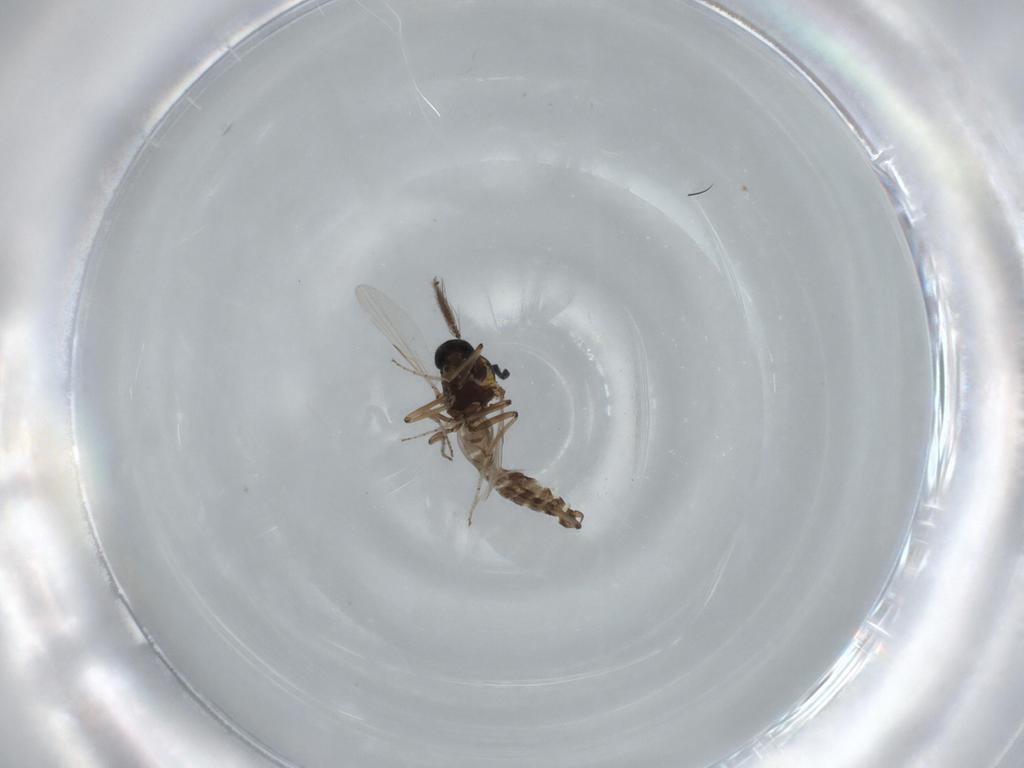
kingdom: Animalia
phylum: Arthropoda
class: Insecta
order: Diptera
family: Ceratopogonidae
